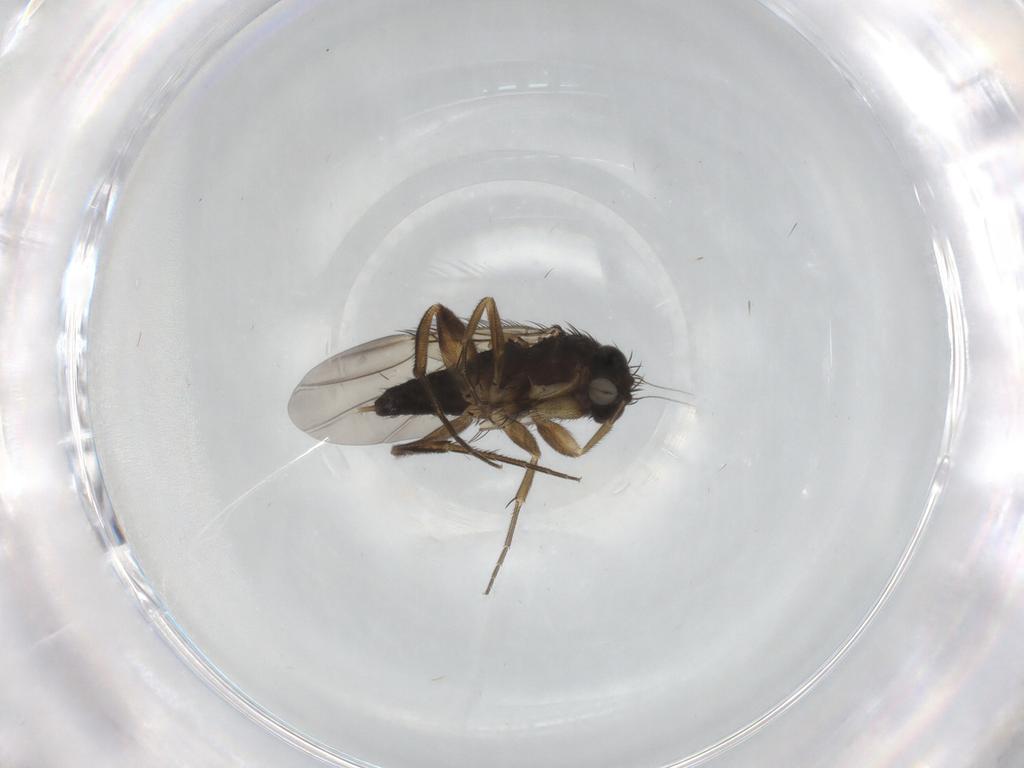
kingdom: Animalia
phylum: Arthropoda
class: Insecta
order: Diptera
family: Phoridae
